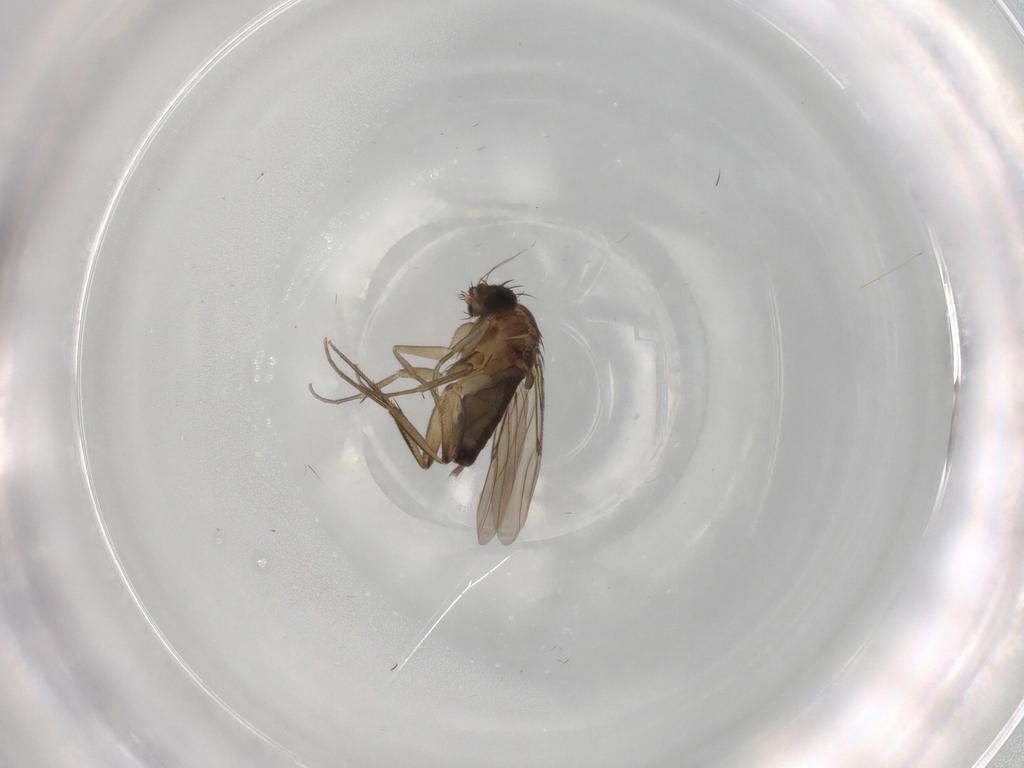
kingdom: Animalia
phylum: Arthropoda
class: Insecta
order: Diptera
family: Phoridae
